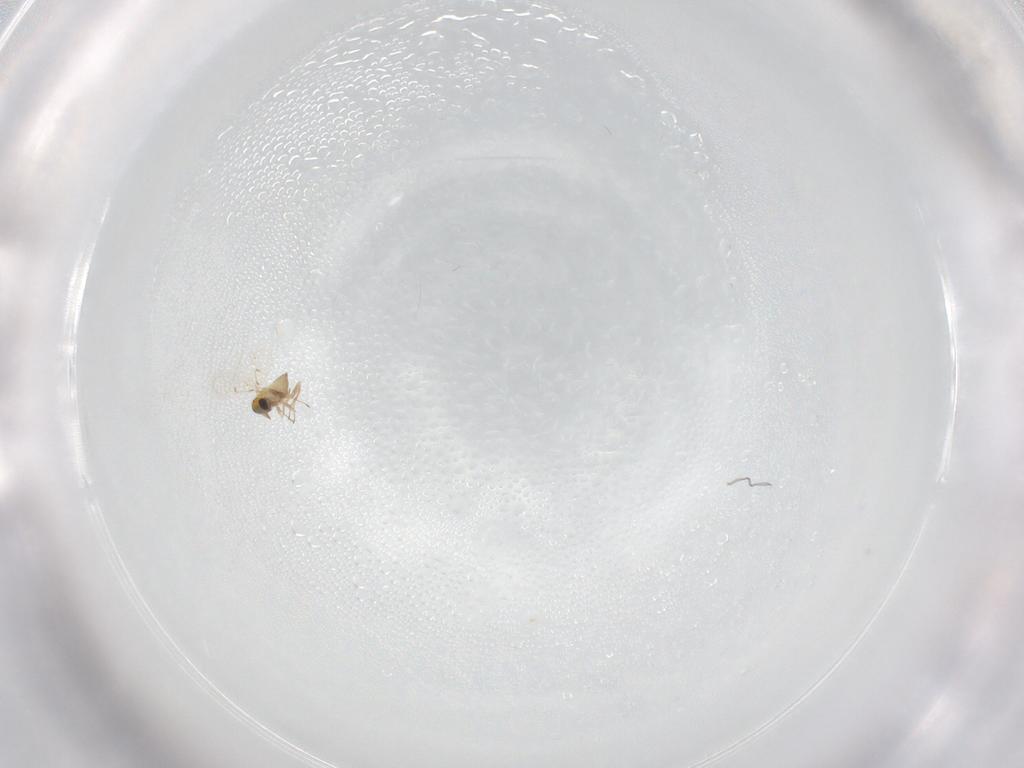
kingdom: Animalia
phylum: Arthropoda
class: Insecta
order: Hymenoptera
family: Trichogrammatidae
